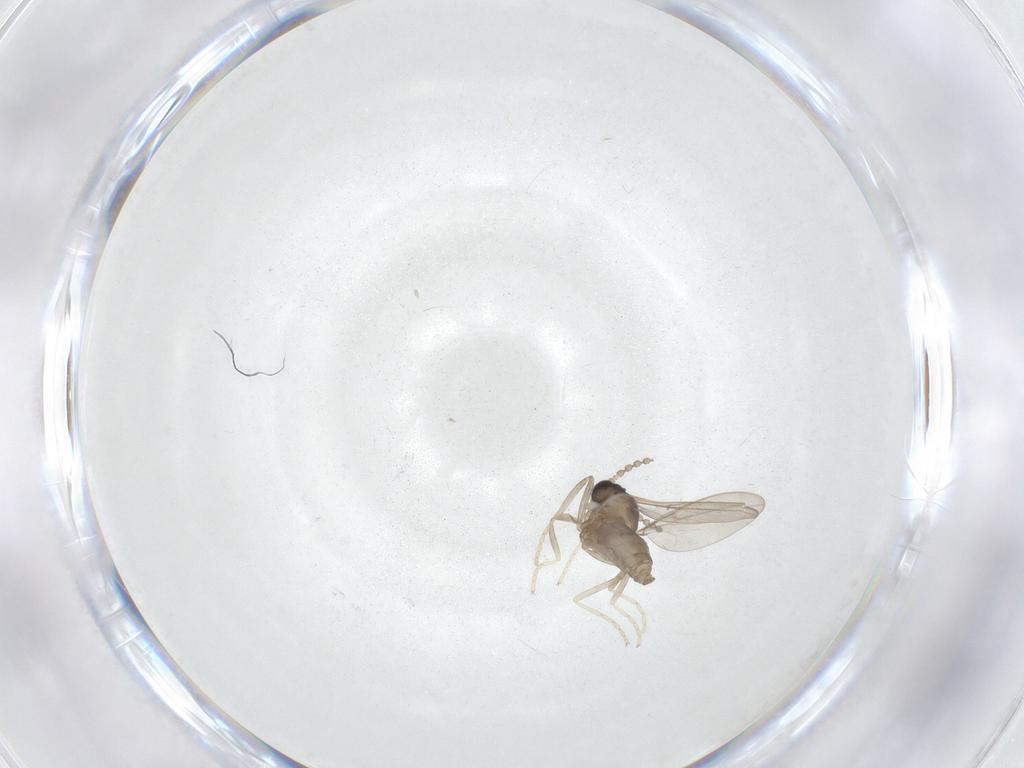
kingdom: Animalia
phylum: Arthropoda
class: Insecta
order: Diptera
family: Cecidomyiidae
